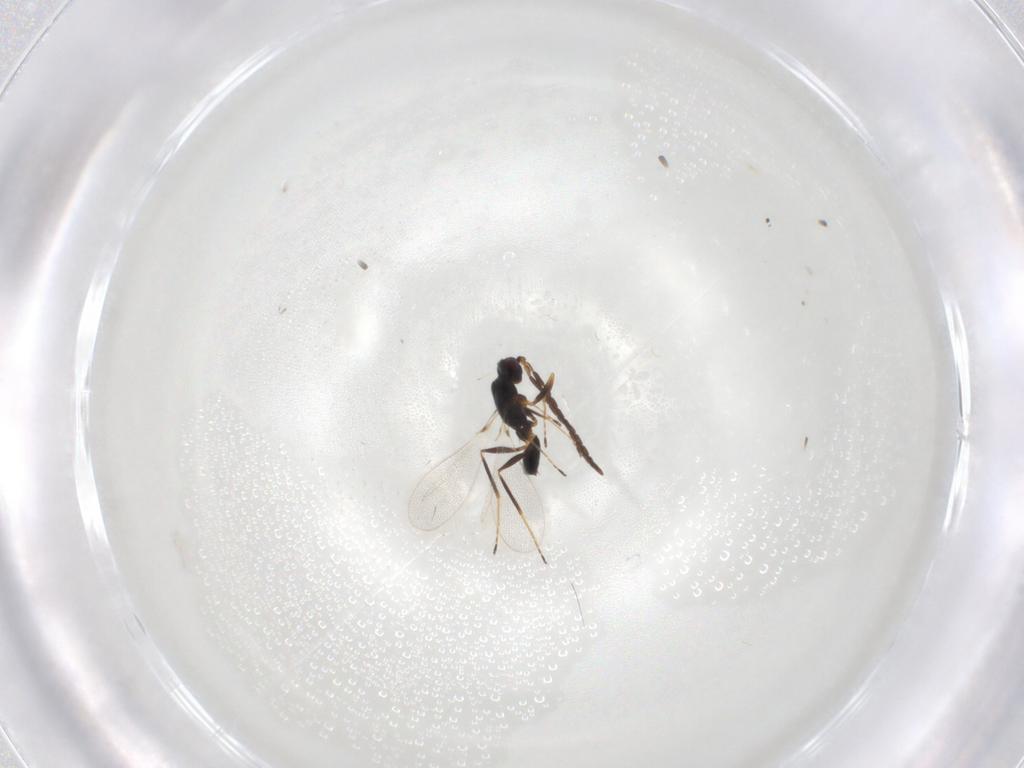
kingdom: Animalia
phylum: Arthropoda
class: Insecta
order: Hymenoptera
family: Mymaridae
